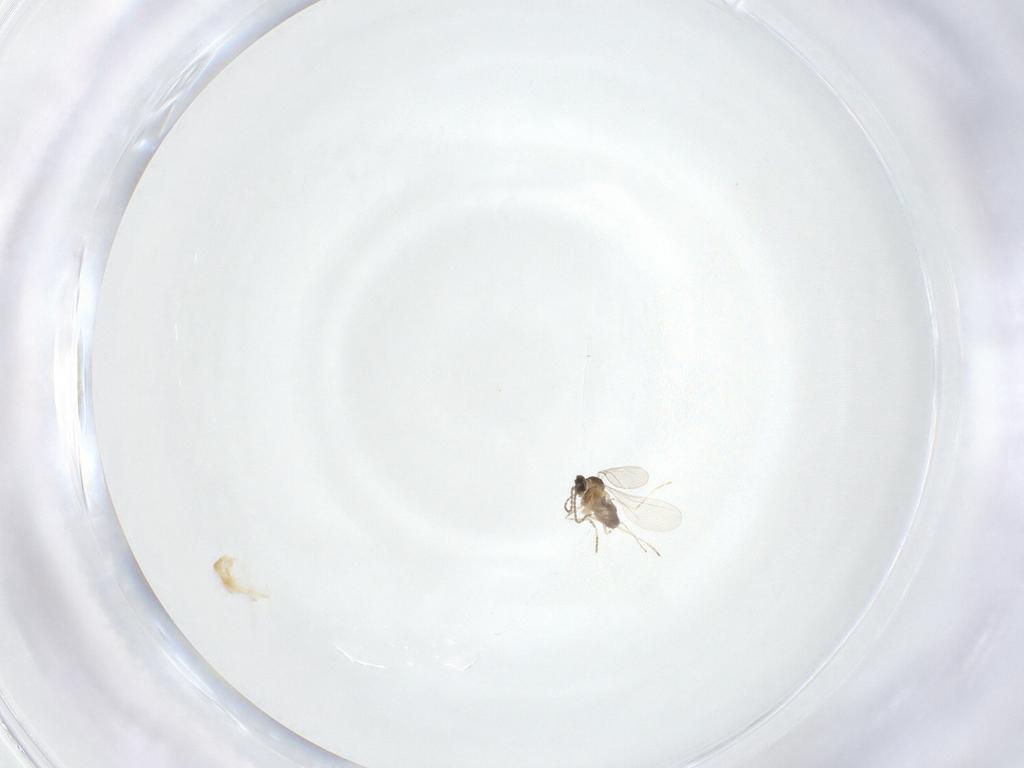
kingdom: Animalia
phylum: Arthropoda
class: Insecta
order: Diptera
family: Cecidomyiidae
